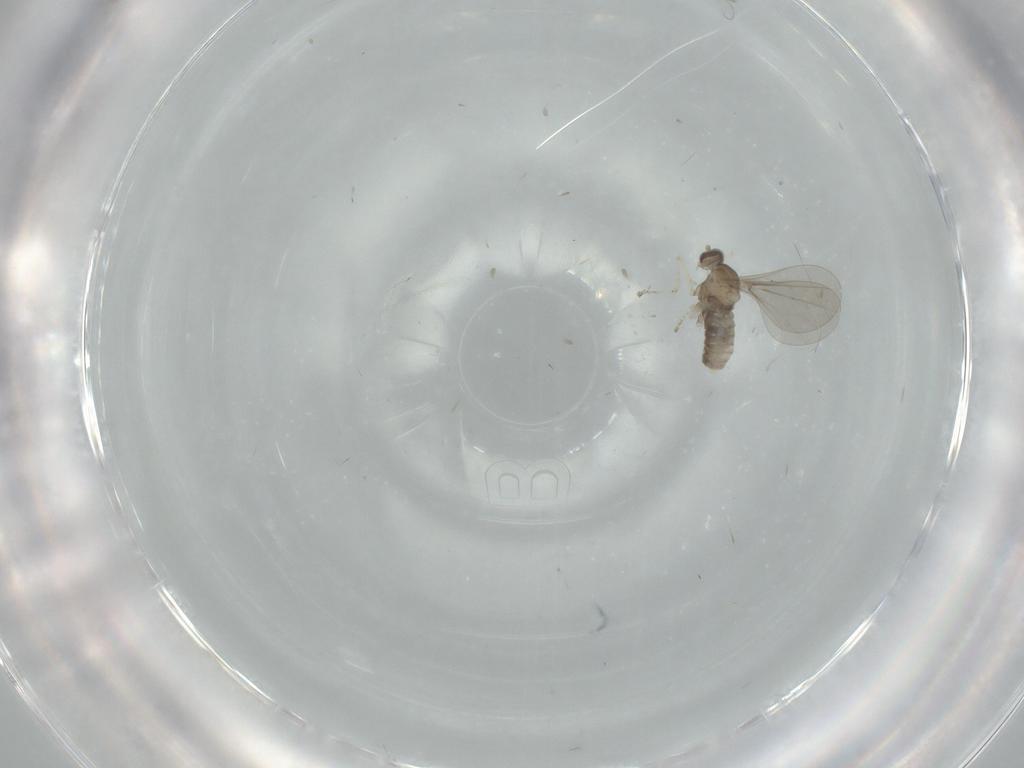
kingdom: Animalia
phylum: Arthropoda
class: Insecta
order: Diptera
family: Cecidomyiidae
